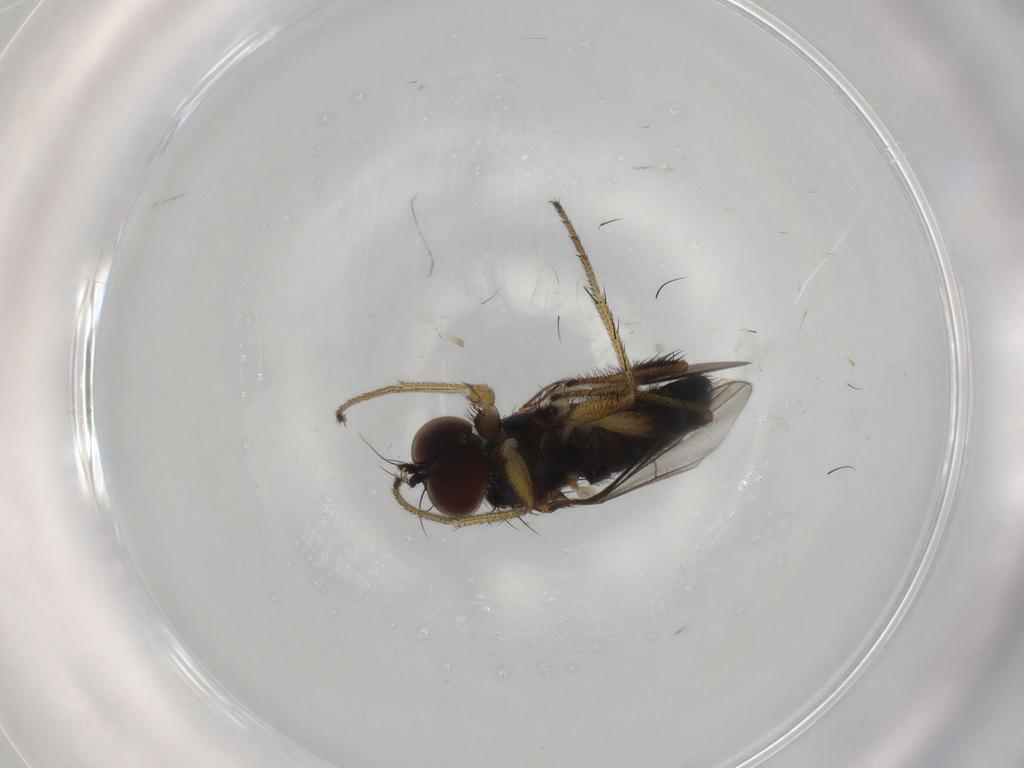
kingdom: Animalia
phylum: Arthropoda
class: Insecta
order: Diptera
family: Dolichopodidae
